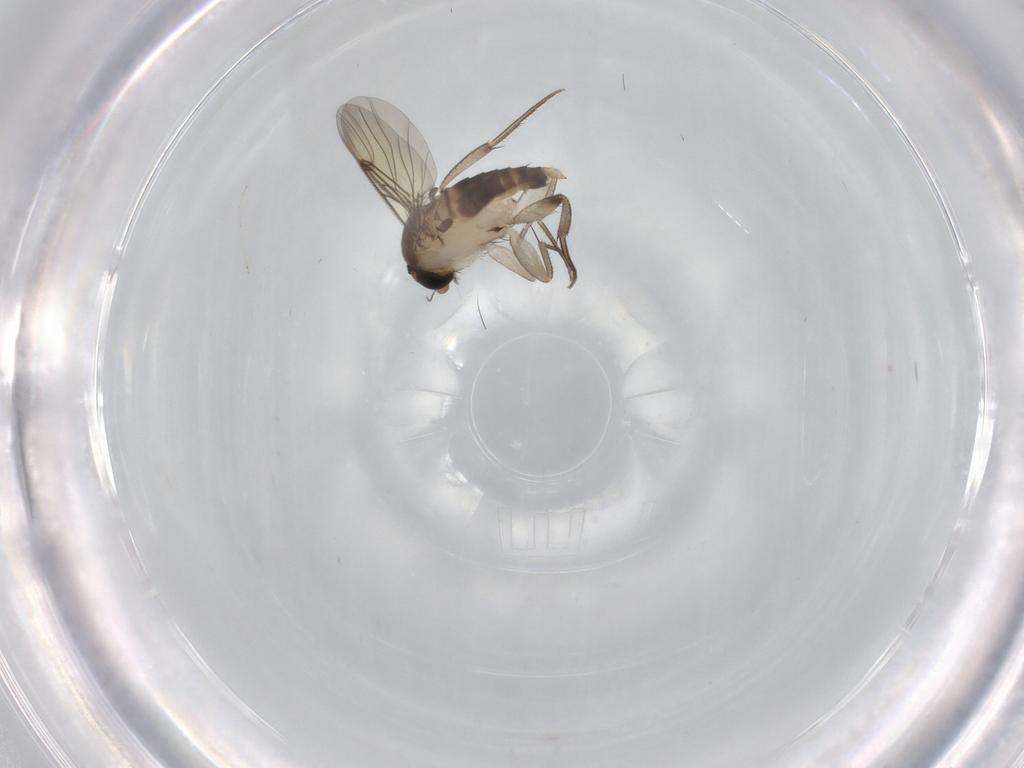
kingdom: Animalia
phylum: Arthropoda
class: Insecta
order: Diptera
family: Phoridae
